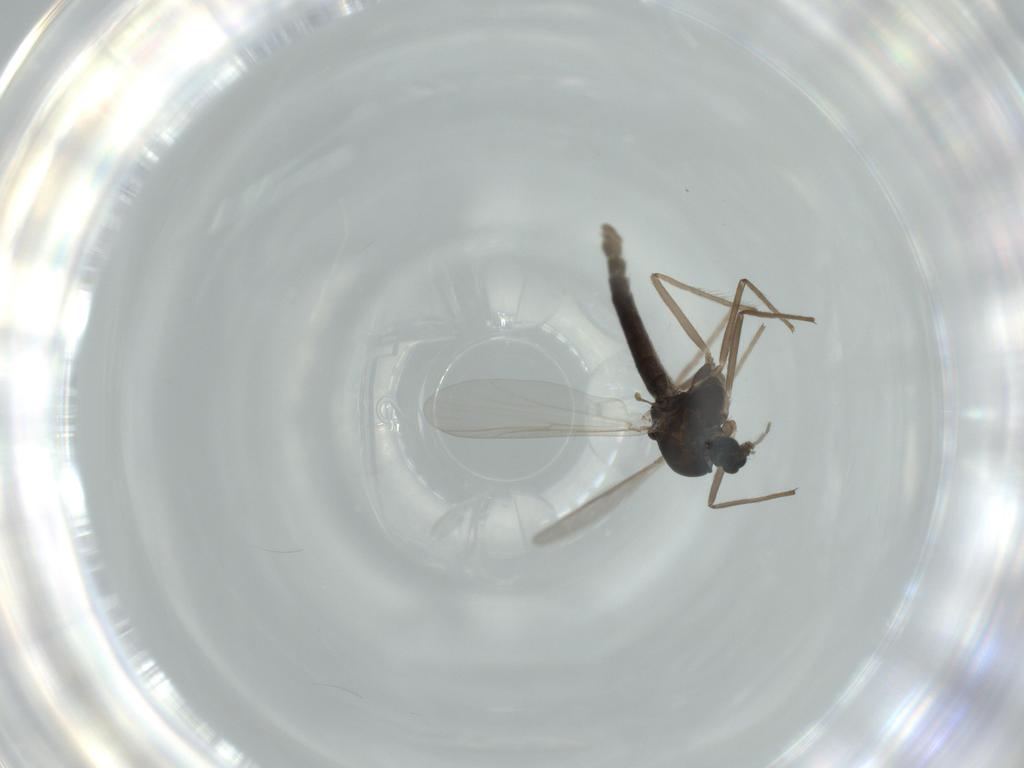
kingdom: Animalia
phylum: Arthropoda
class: Insecta
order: Diptera
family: Chironomidae
